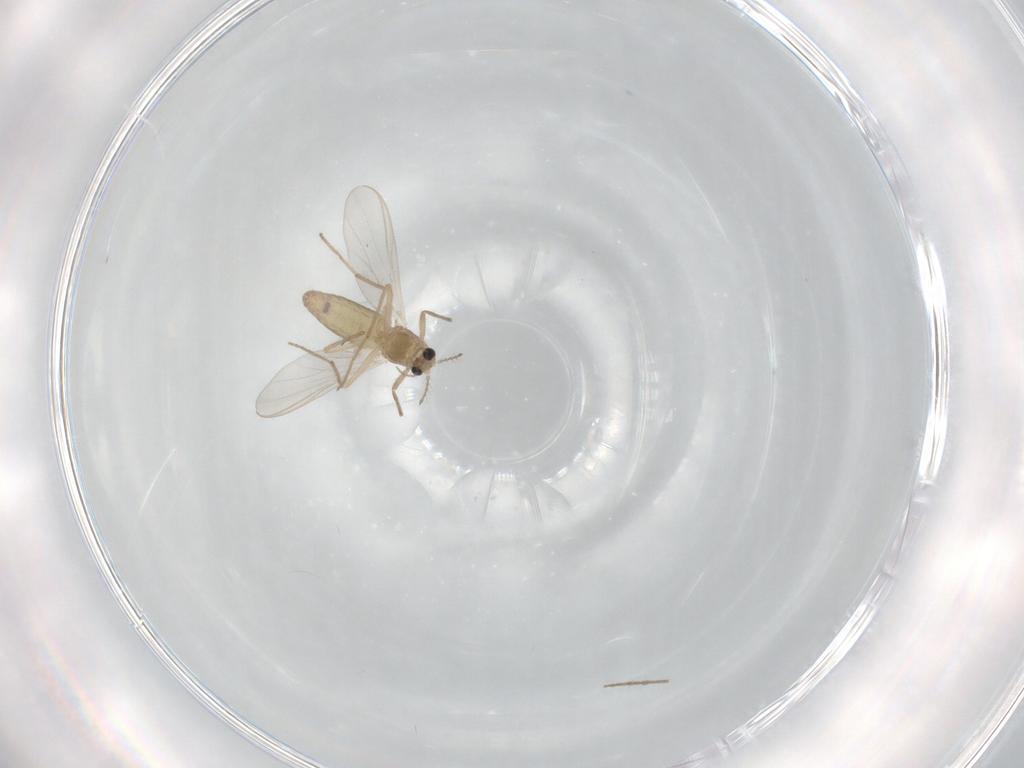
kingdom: Animalia
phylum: Arthropoda
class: Insecta
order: Diptera
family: Chironomidae
